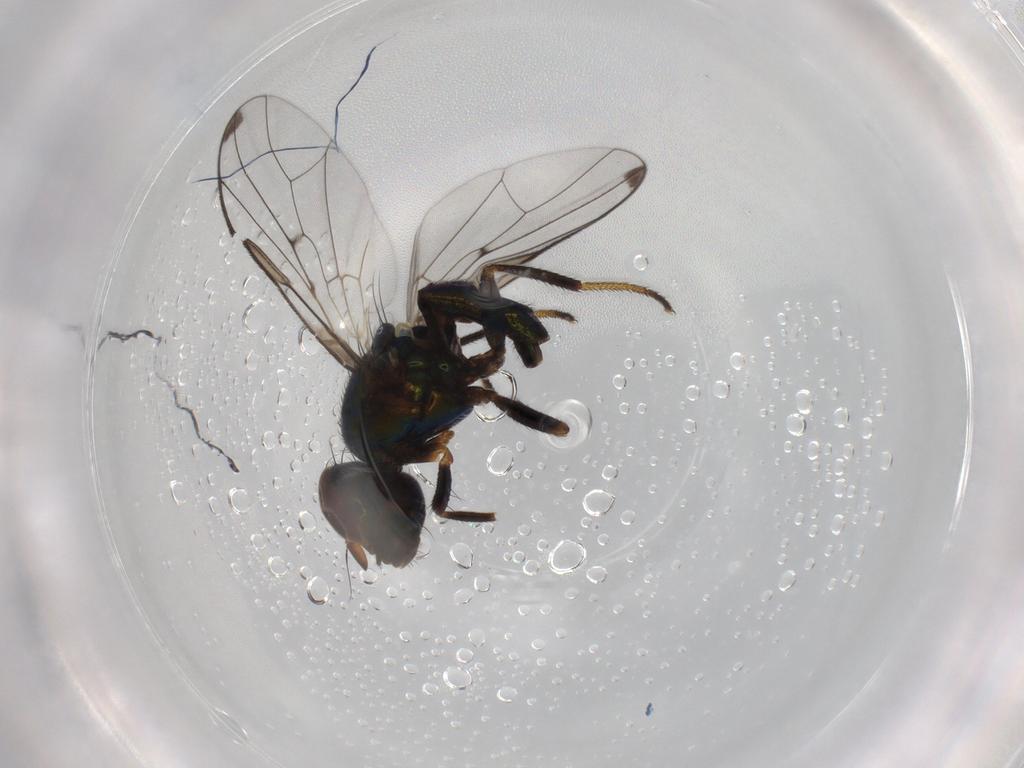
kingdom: Animalia
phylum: Arthropoda
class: Insecta
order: Diptera
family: Platystomatidae
